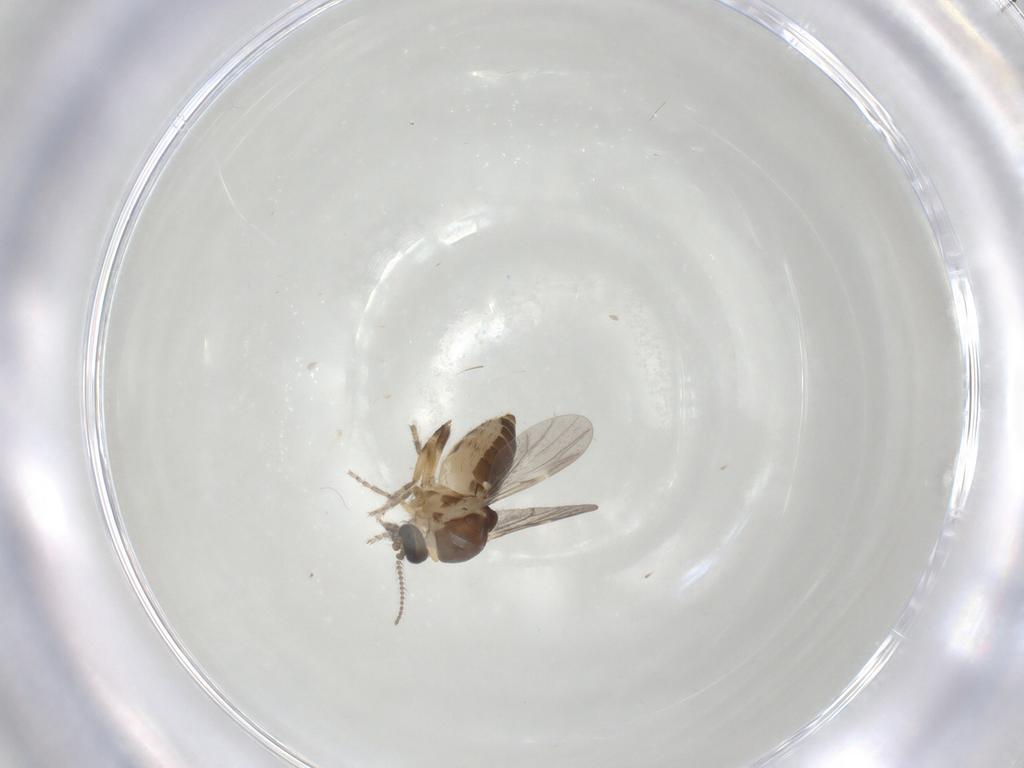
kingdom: Animalia
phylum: Arthropoda
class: Insecta
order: Diptera
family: Ceratopogonidae
